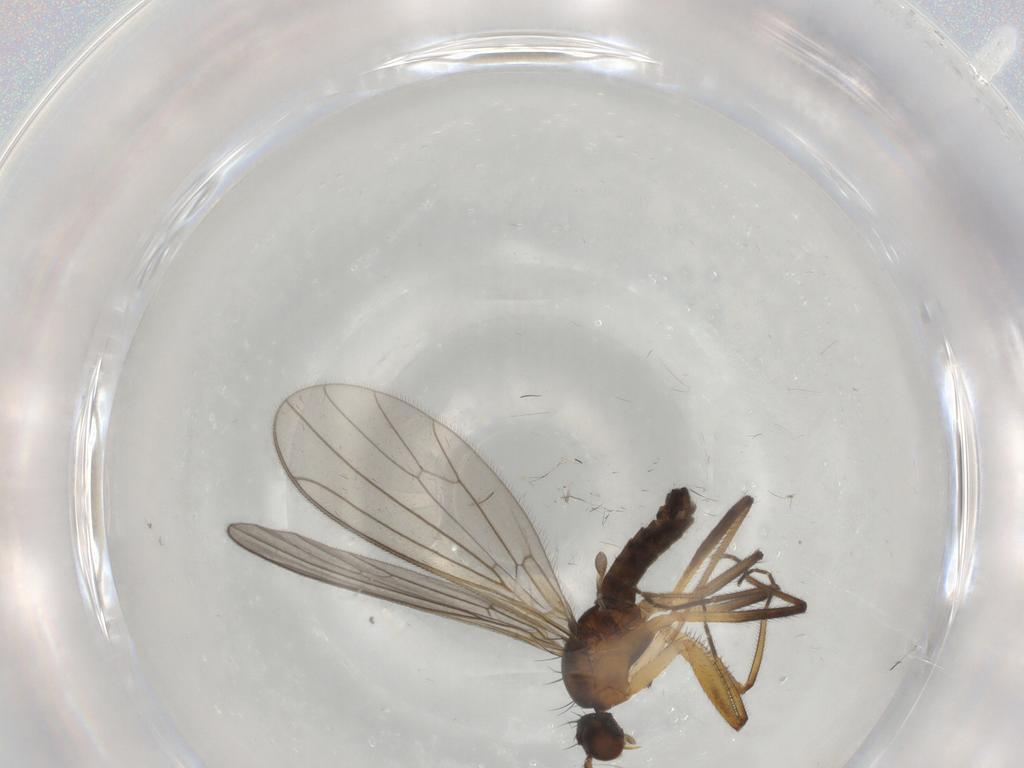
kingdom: Animalia
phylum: Arthropoda
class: Insecta
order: Diptera
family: Sciaridae
